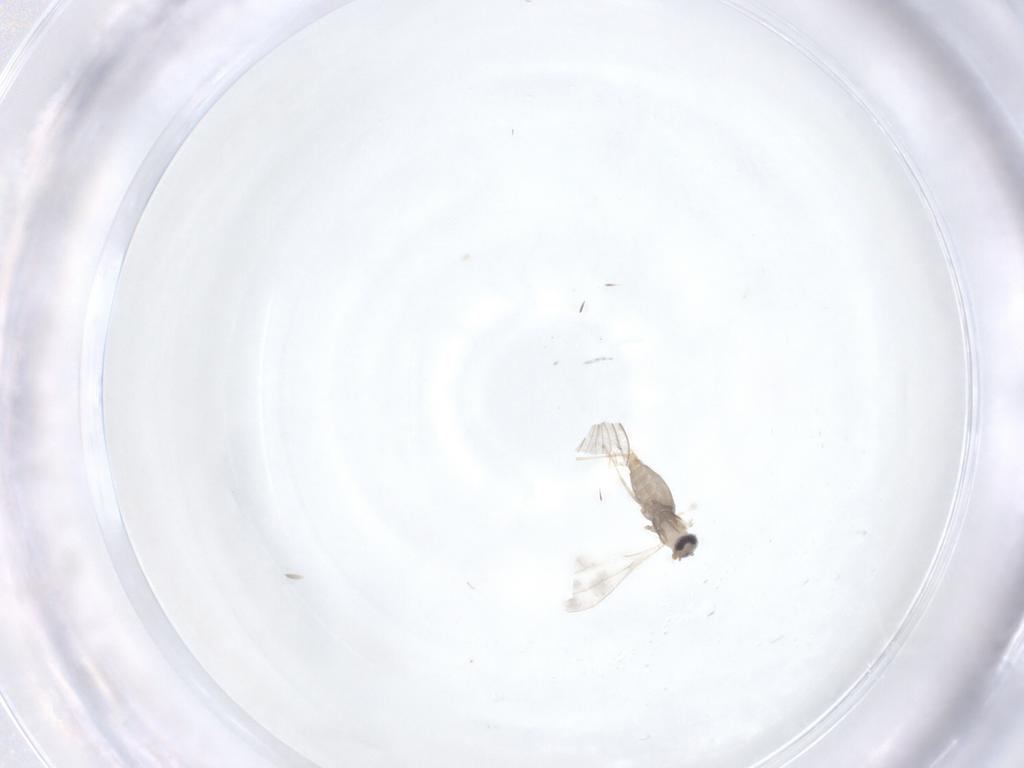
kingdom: Animalia
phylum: Arthropoda
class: Insecta
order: Diptera
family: Cecidomyiidae
